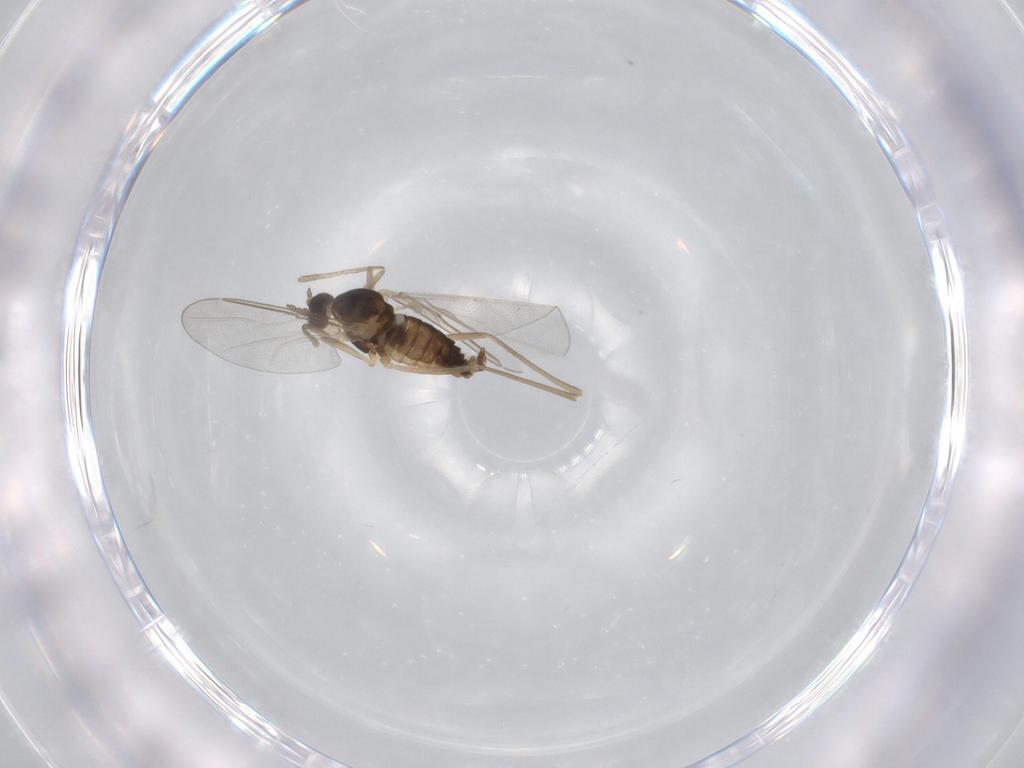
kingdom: Animalia
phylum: Arthropoda
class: Insecta
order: Diptera
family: Cecidomyiidae
